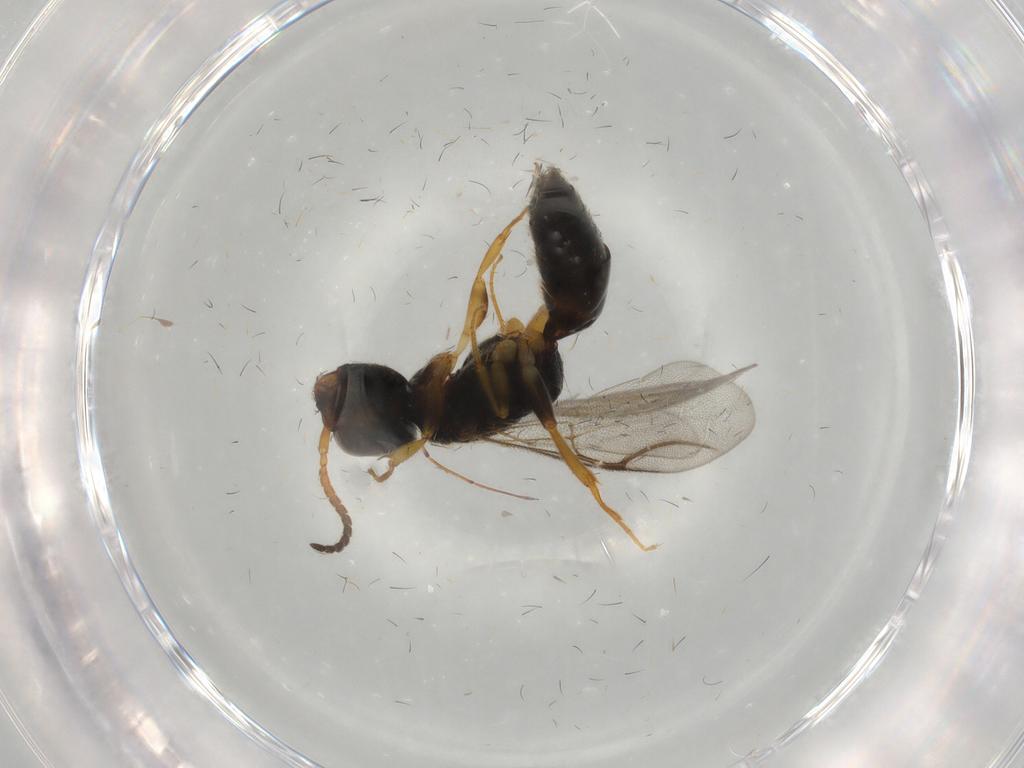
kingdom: Animalia
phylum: Arthropoda
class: Insecta
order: Hymenoptera
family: Bethylidae
